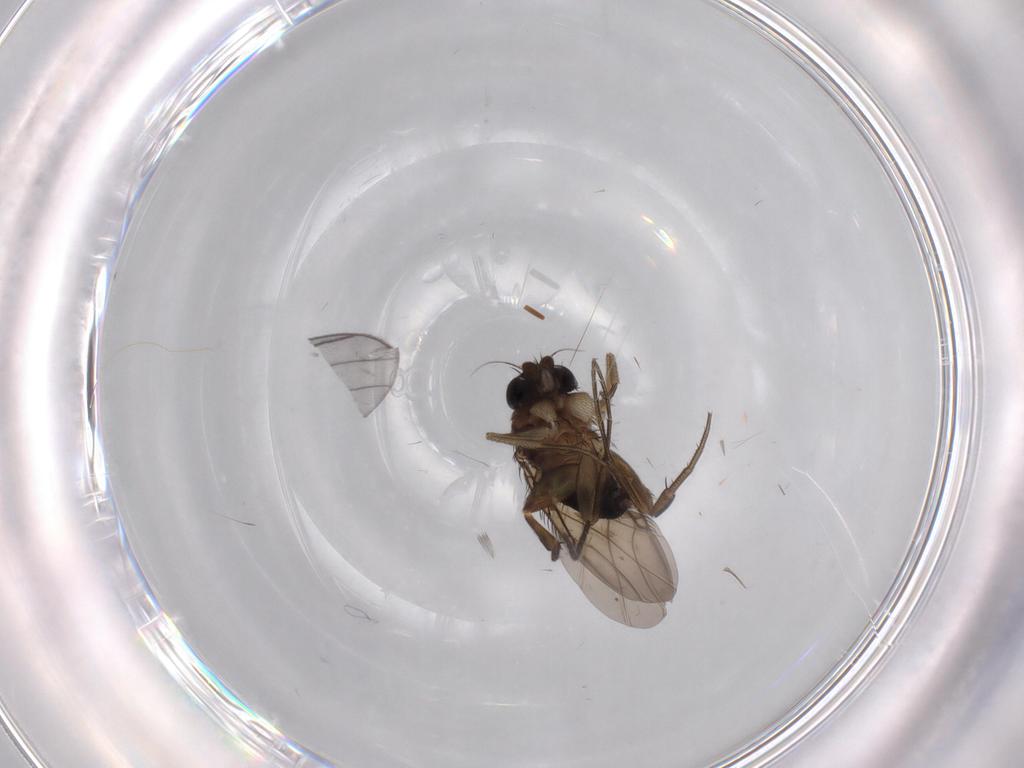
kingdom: Animalia
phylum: Arthropoda
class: Insecta
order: Diptera
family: Phoridae
